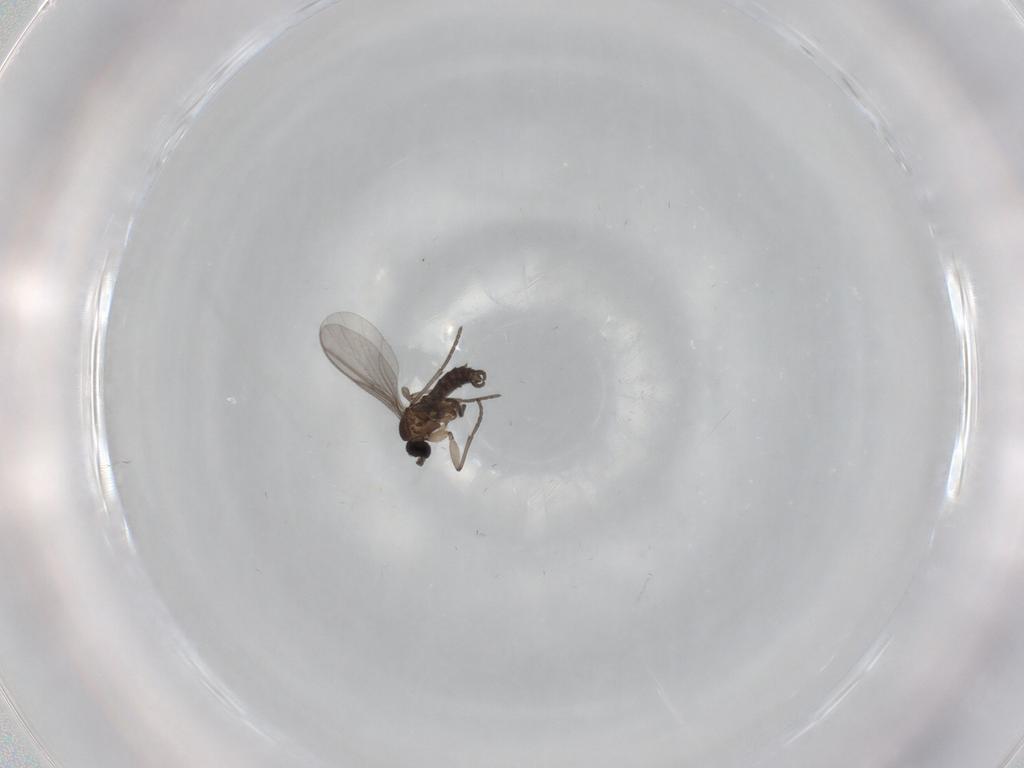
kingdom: Animalia
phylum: Arthropoda
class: Insecta
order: Diptera
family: Sciaridae
